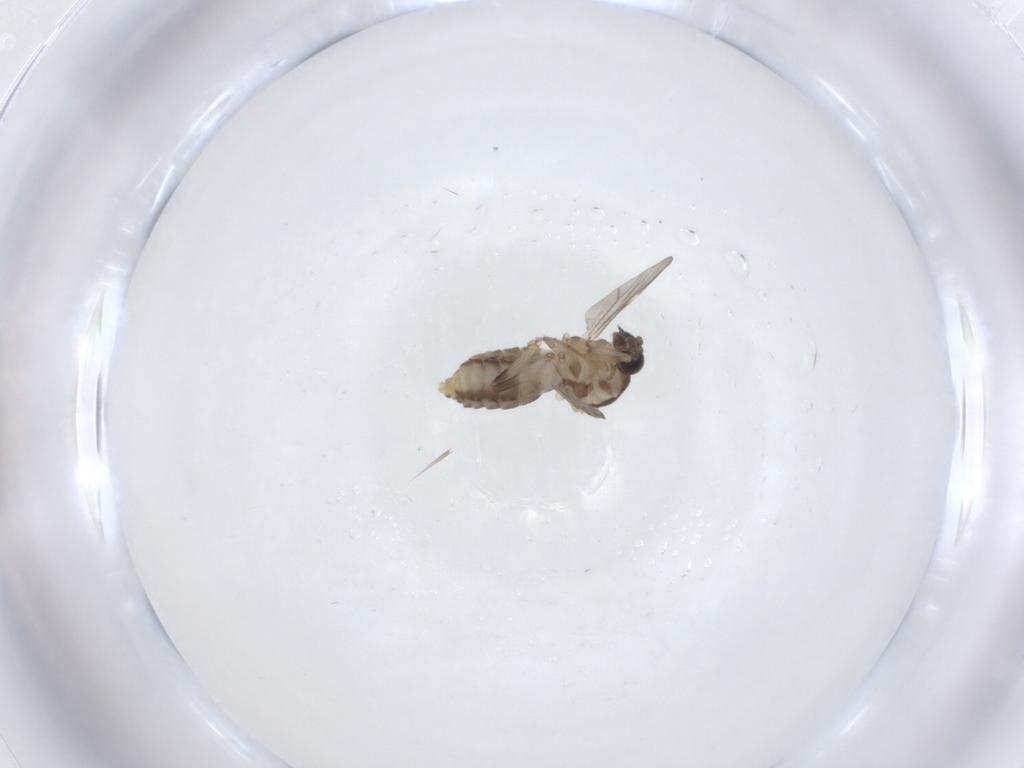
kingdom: Animalia
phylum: Arthropoda
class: Insecta
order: Diptera
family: Ceratopogonidae
